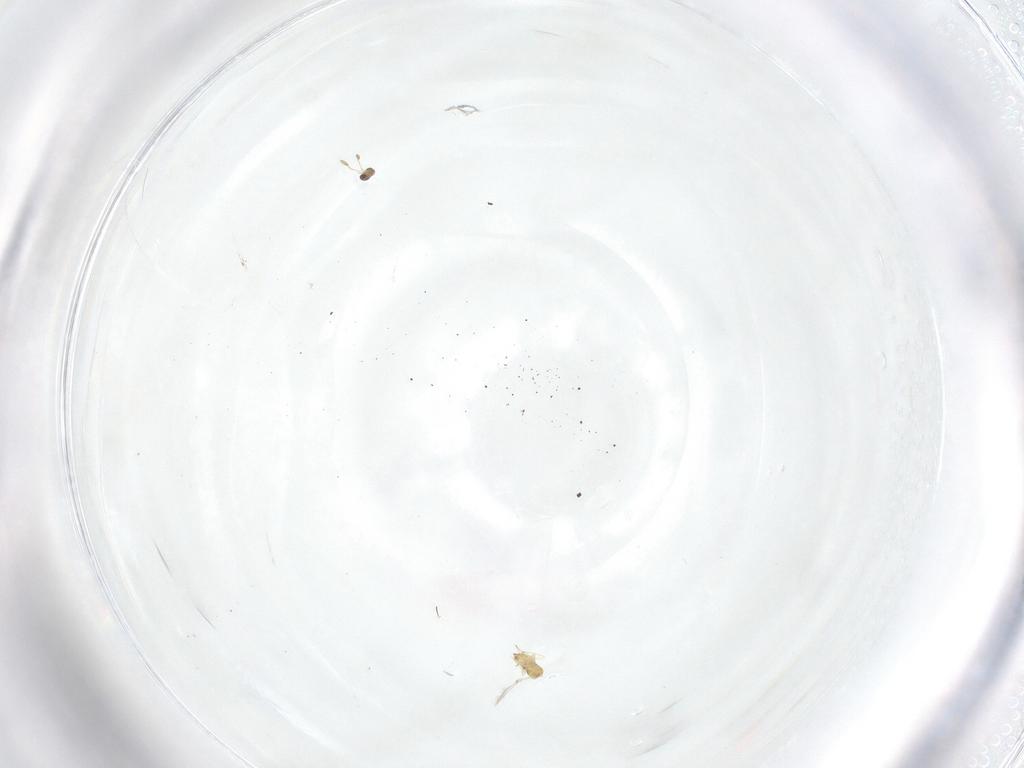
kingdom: Animalia
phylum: Arthropoda
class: Insecta
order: Hymenoptera
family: Mymaridae
